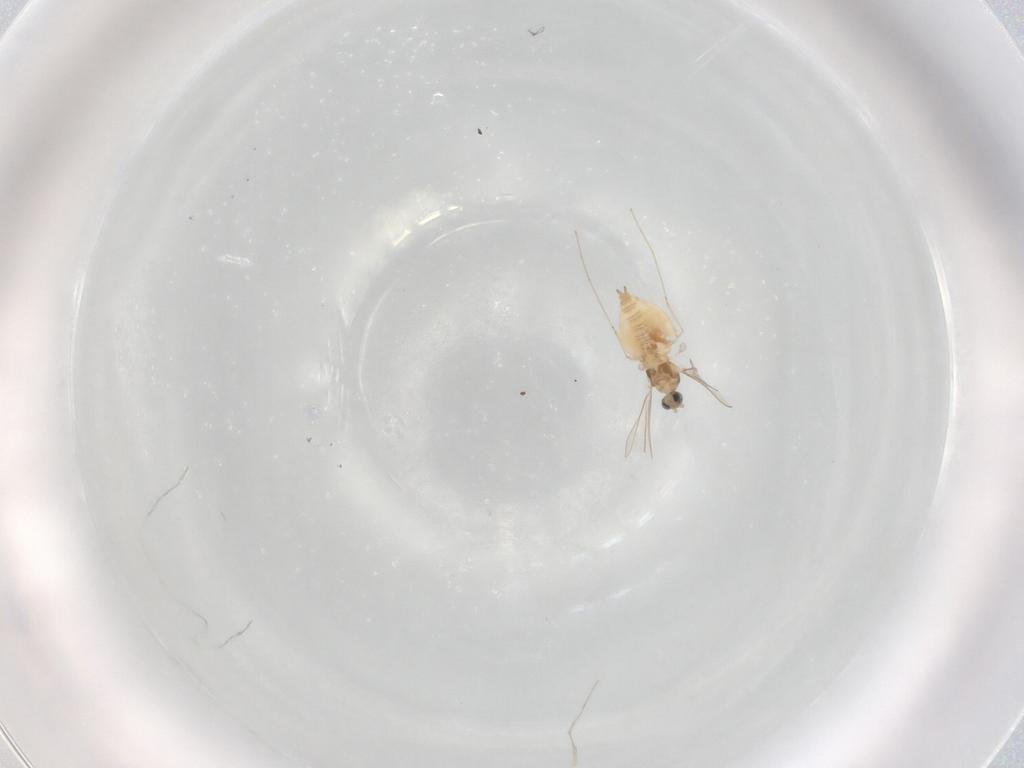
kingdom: Animalia
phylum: Arthropoda
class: Insecta
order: Diptera
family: Cecidomyiidae
